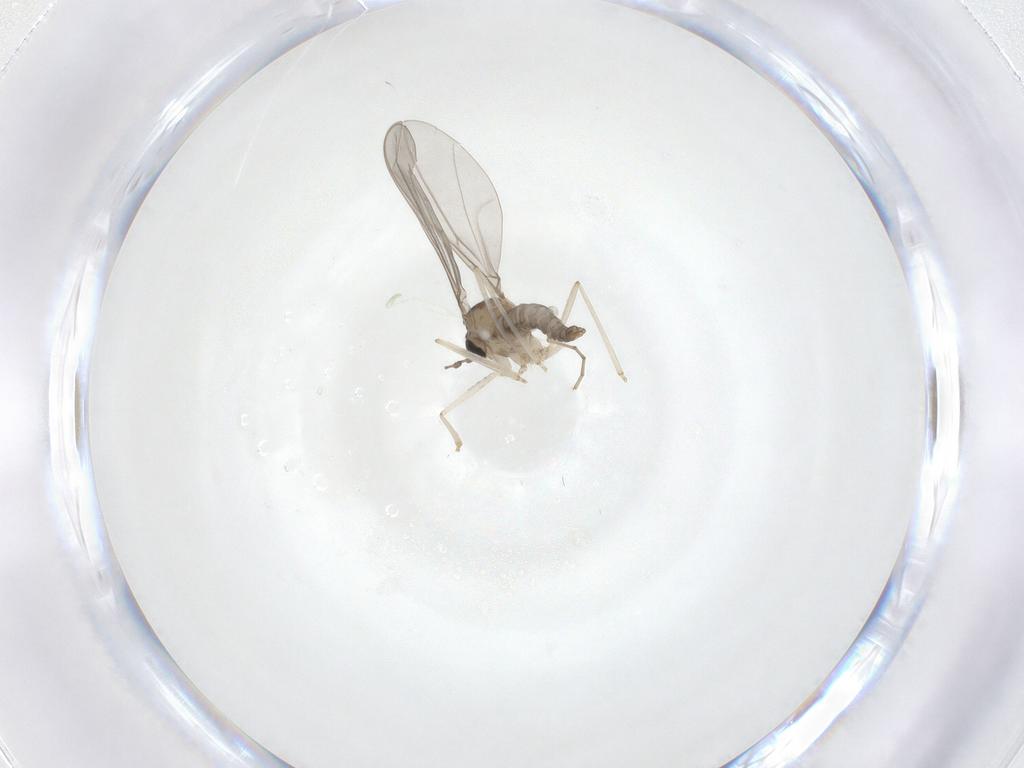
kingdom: Animalia
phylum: Arthropoda
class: Insecta
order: Diptera
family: Cecidomyiidae
